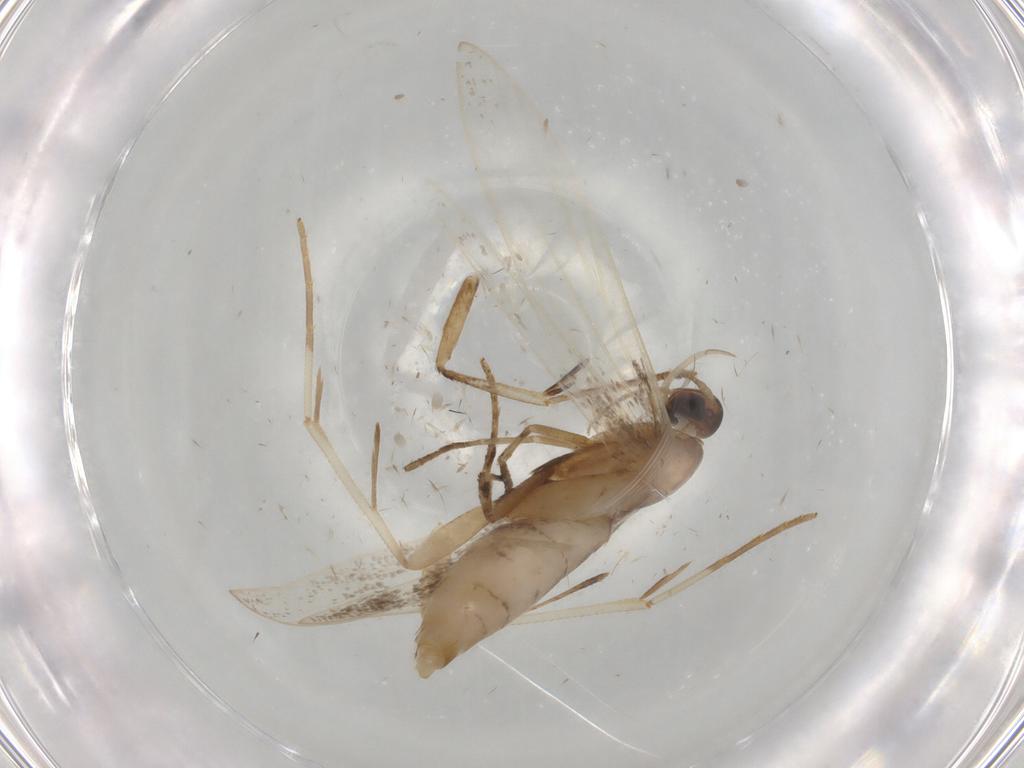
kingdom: Animalia
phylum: Arthropoda
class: Insecta
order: Lepidoptera
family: Gelechiidae
